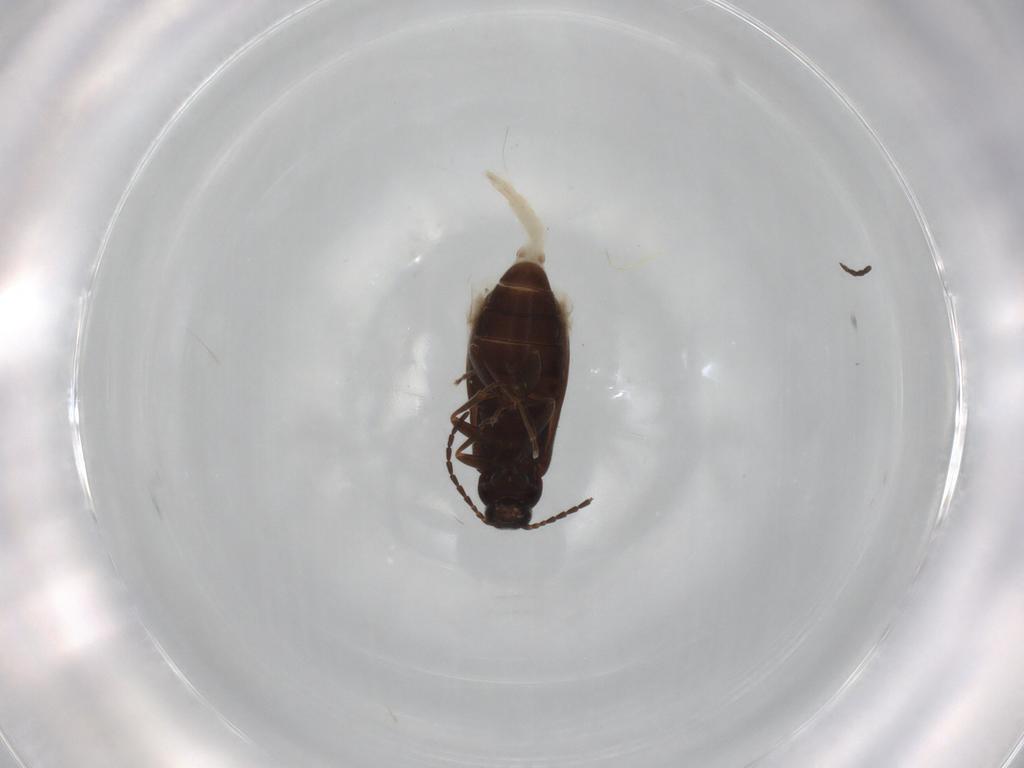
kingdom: Animalia
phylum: Arthropoda
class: Insecta
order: Coleoptera
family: Scraptiidae
